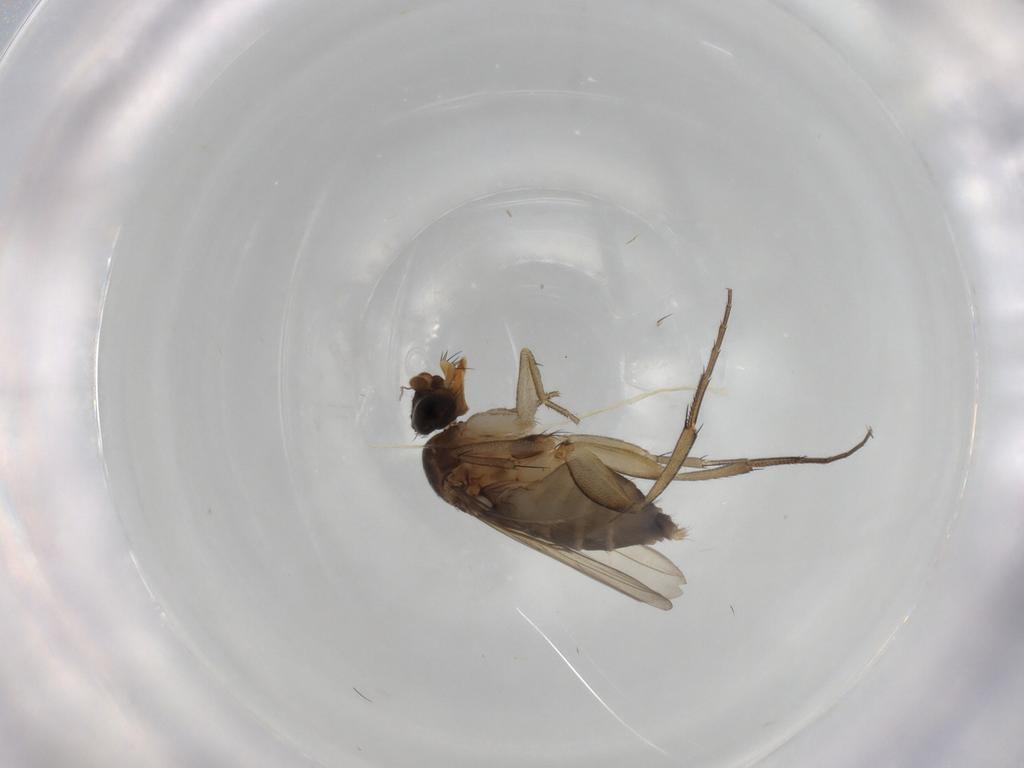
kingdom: Animalia
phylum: Arthropoda
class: Insecta
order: Diptera
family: Phoridae
